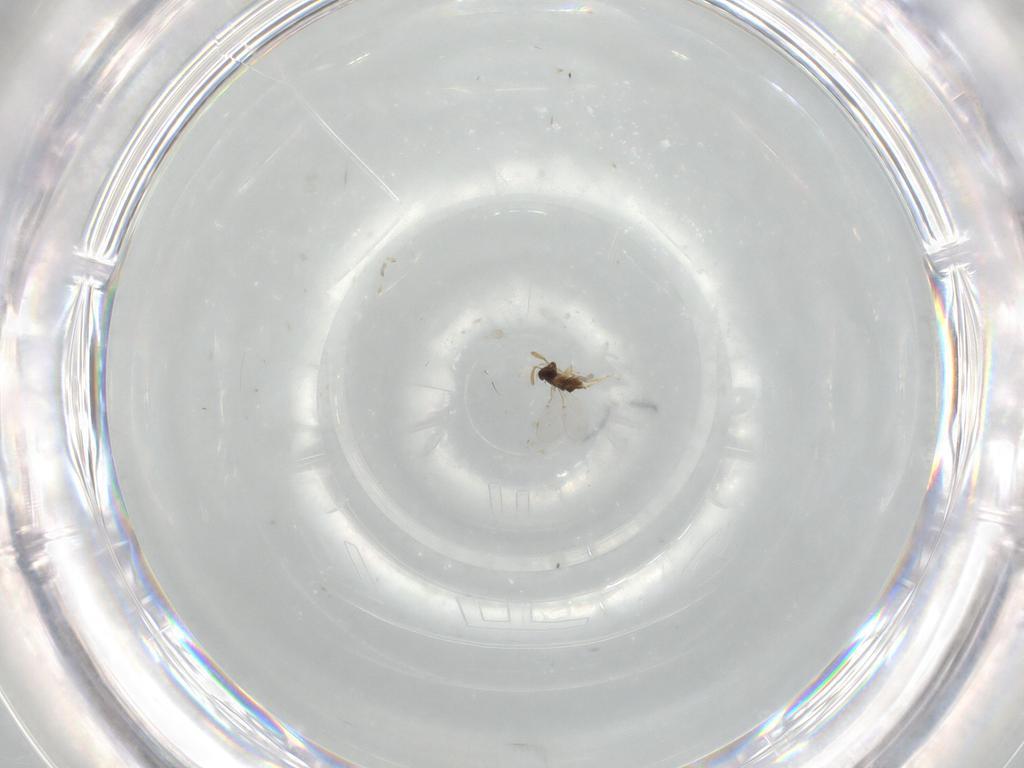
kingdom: Animalia
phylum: Arthropoda
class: Insecta
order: Hymenoptera
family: Encyrtidae
